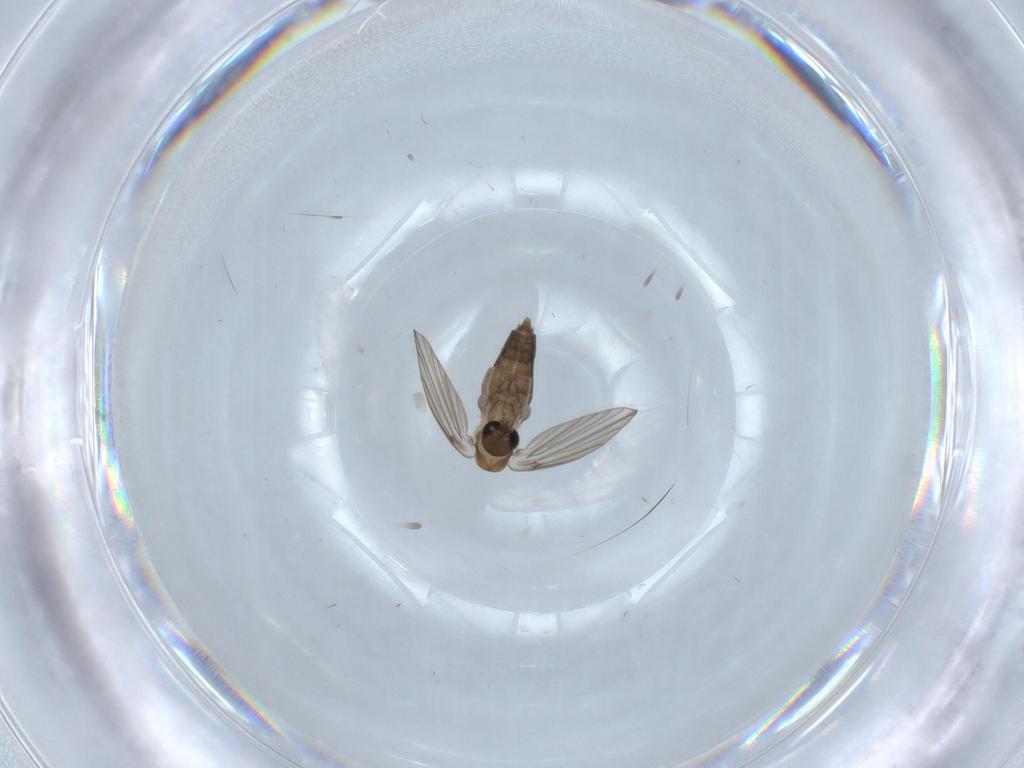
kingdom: Animalia
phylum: Arthropoda
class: Insecta
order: Diptera
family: Psychodidae
